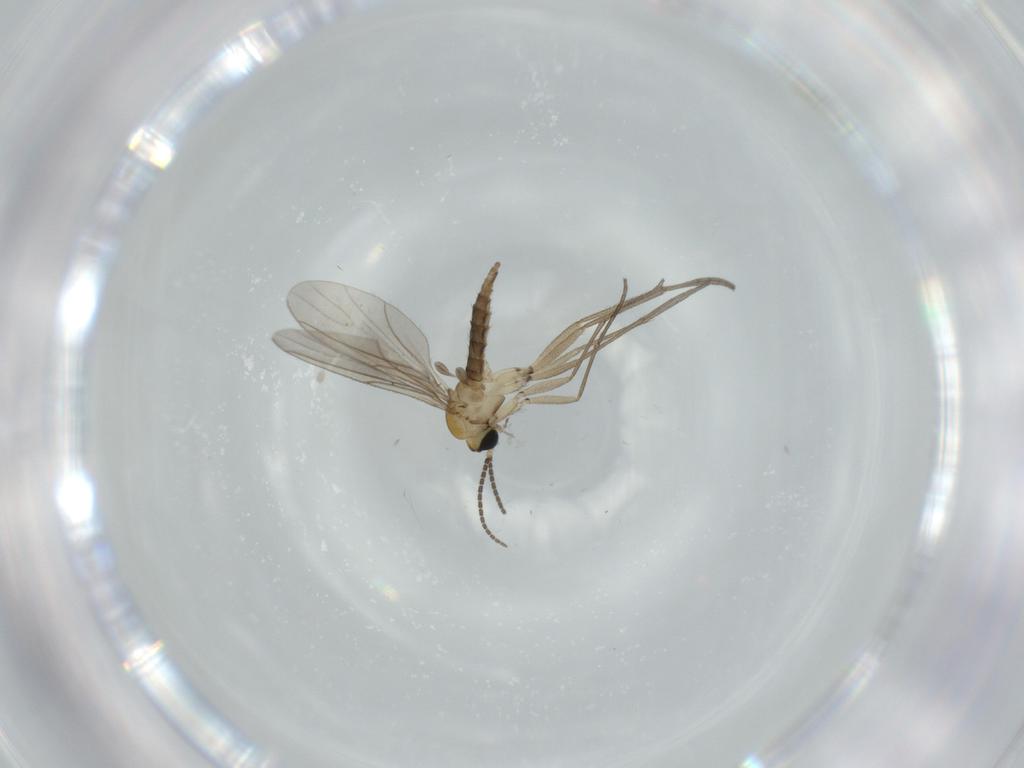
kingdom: Animalia
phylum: Arthropoda
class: Insecta
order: Diptera
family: Sciaridae
